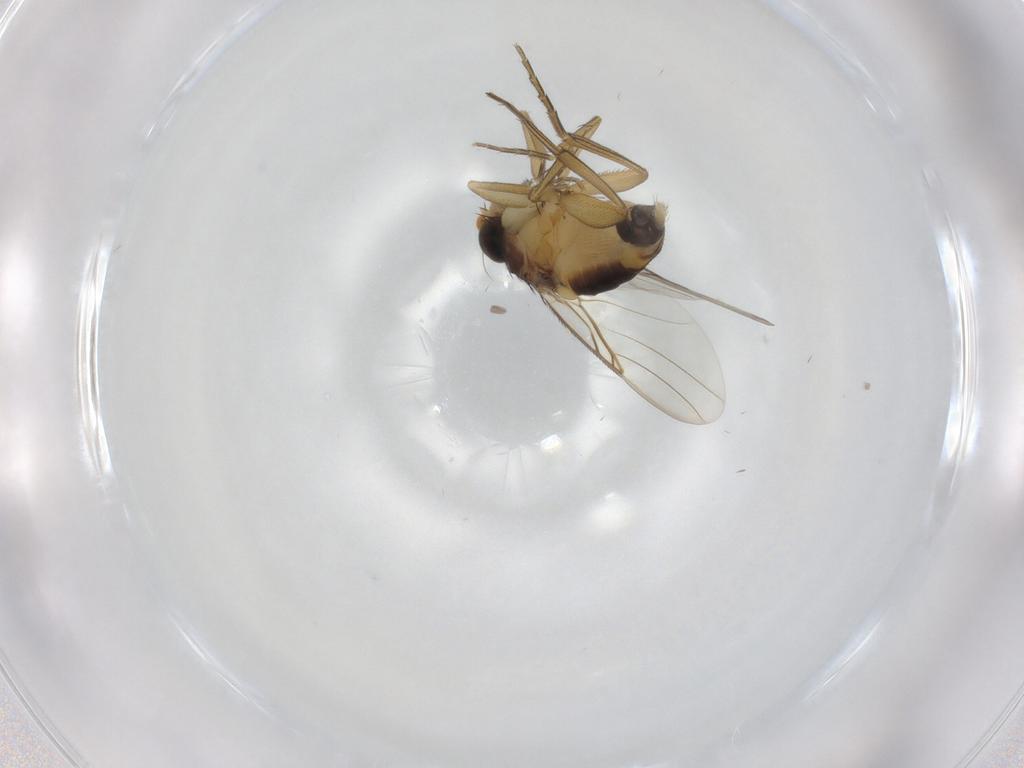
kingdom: Animalia
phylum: Arthropoda
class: Insecta
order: Diptera
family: Phoridae
